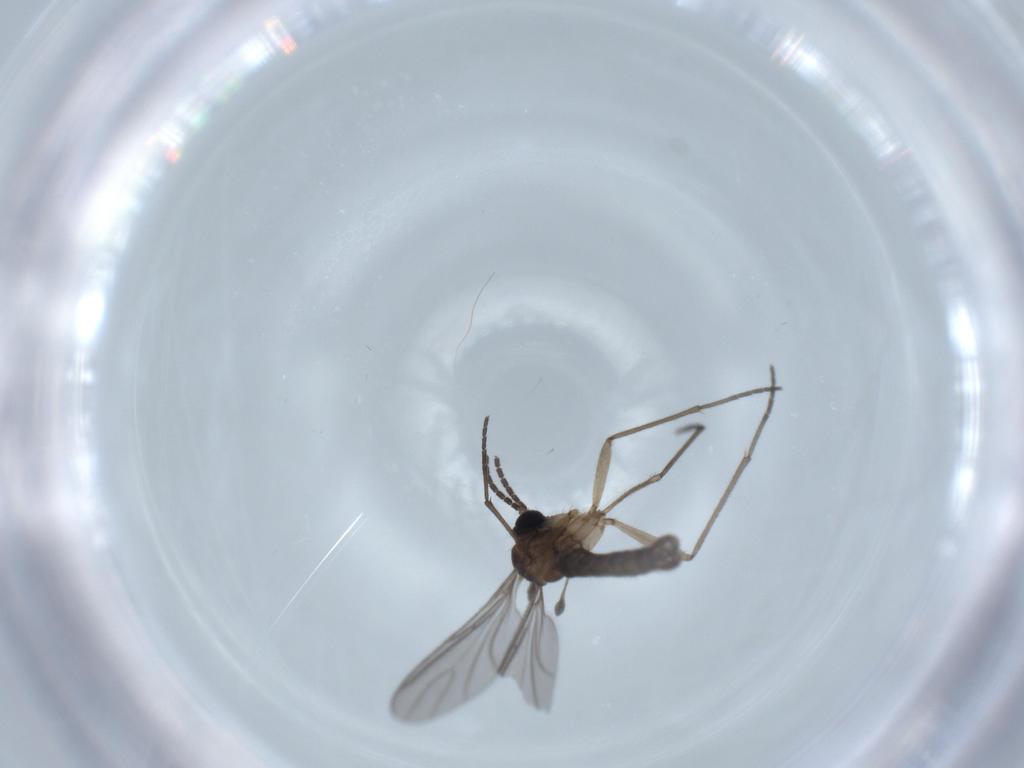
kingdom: Animalia
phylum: Arthropoda
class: Insecta
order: Diptera
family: Sciaridae
